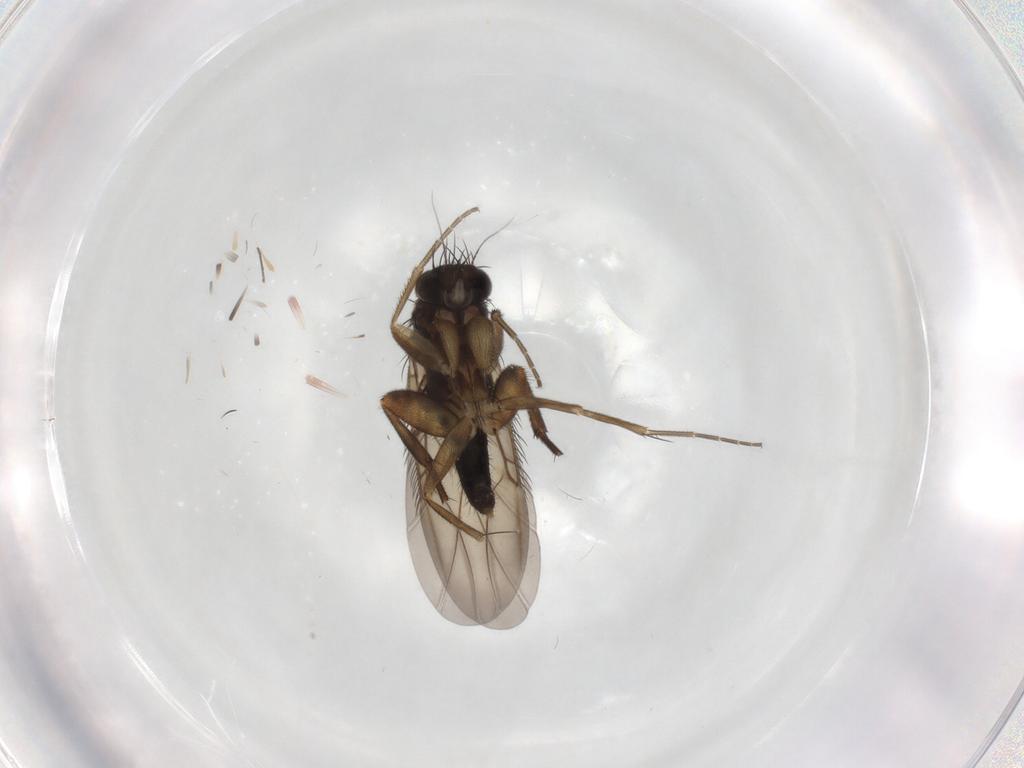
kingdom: Animalia
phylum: Arthropoda
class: Insecta
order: Diptera
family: Phoridae
